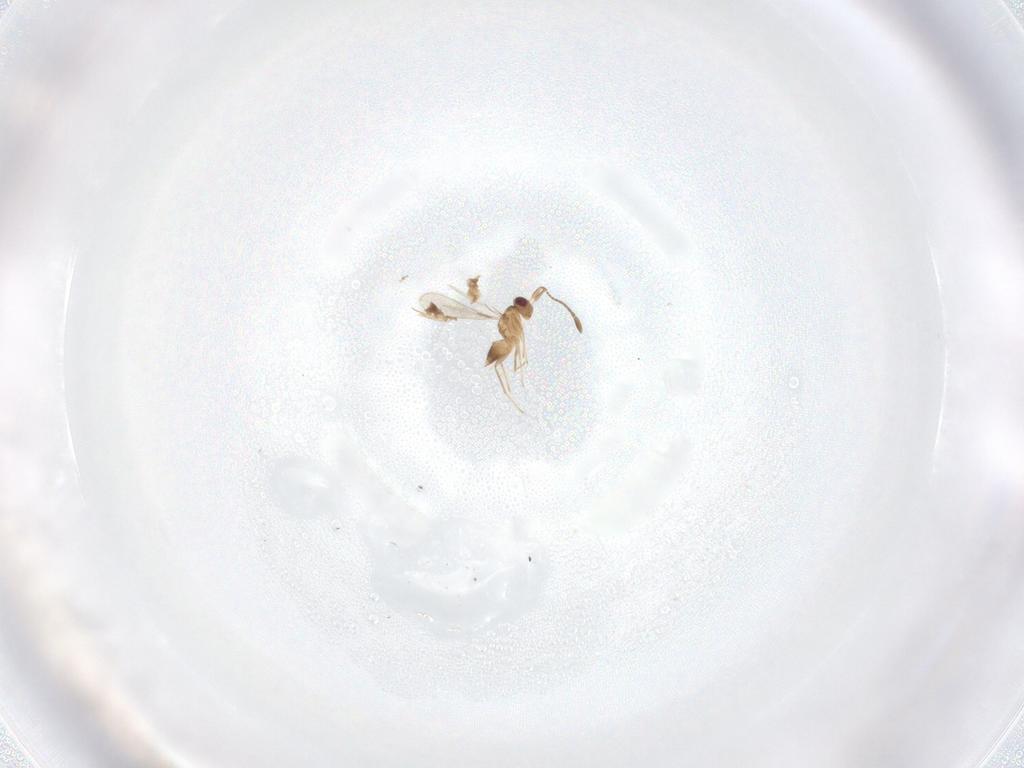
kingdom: Animalia
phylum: Arthropoda
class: Insecta
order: Hymenoptera
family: Mymaridae
